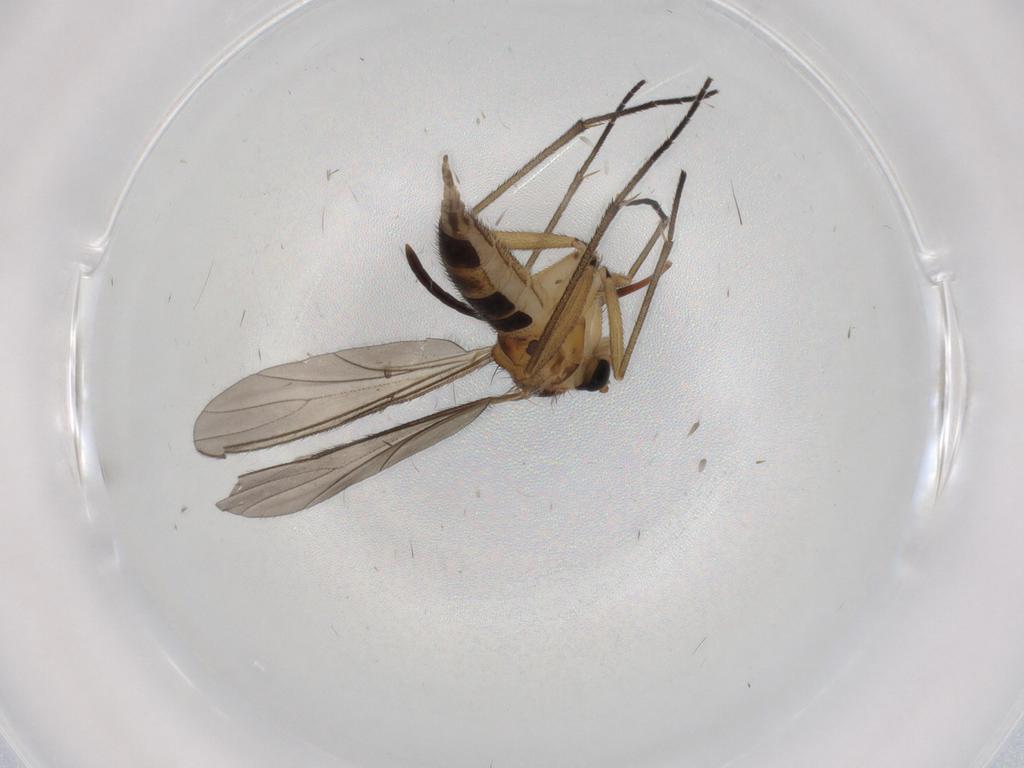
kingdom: Animalia
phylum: Arthropoda
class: Insecta
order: Diptera
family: Sciaridae
